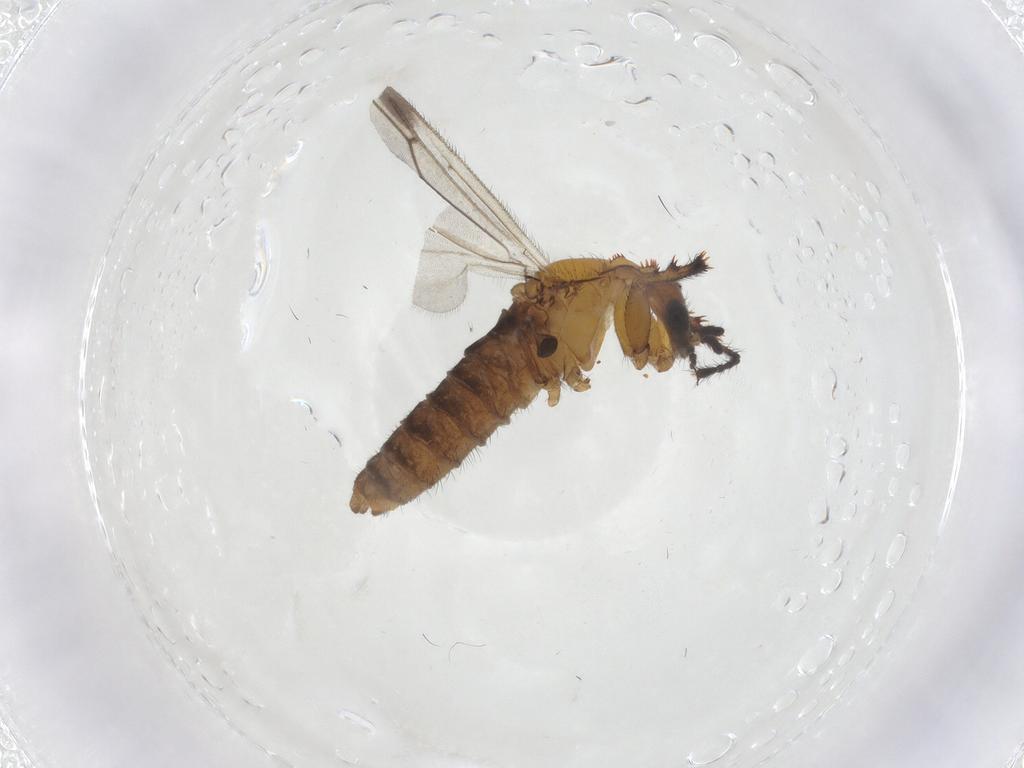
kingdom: Animalia
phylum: Arthropoda
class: Insecta
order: Diptera
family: Bibionidae
